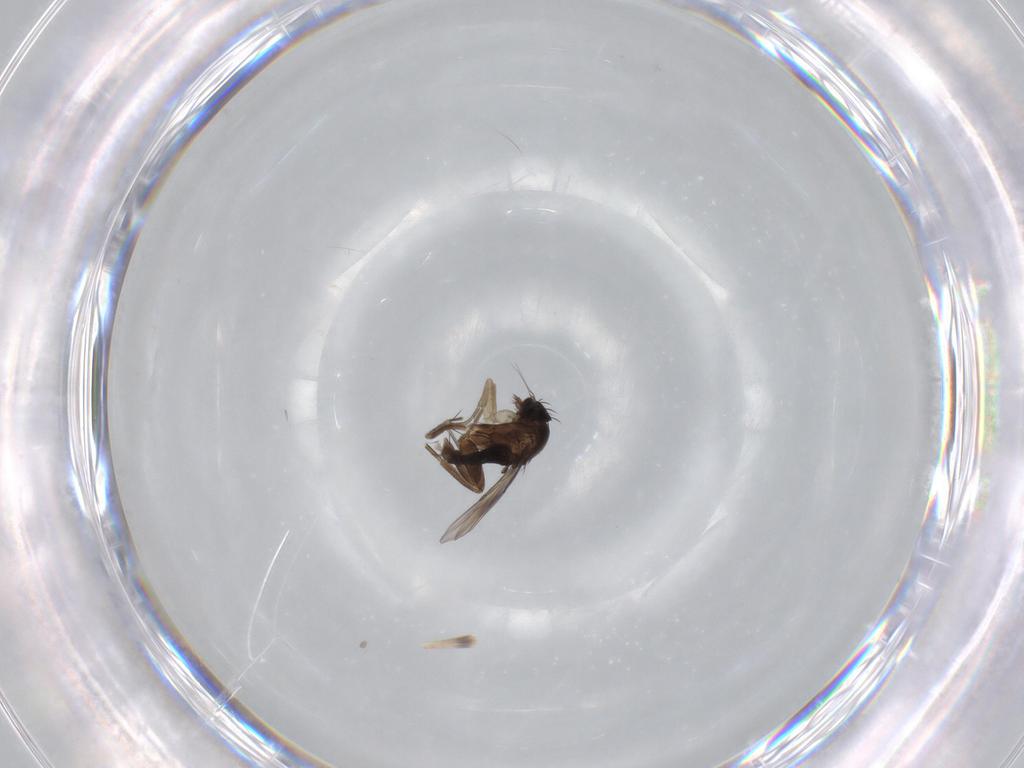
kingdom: Animalia
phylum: Arthropoda
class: Insecta
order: Diptera
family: Phoridae
